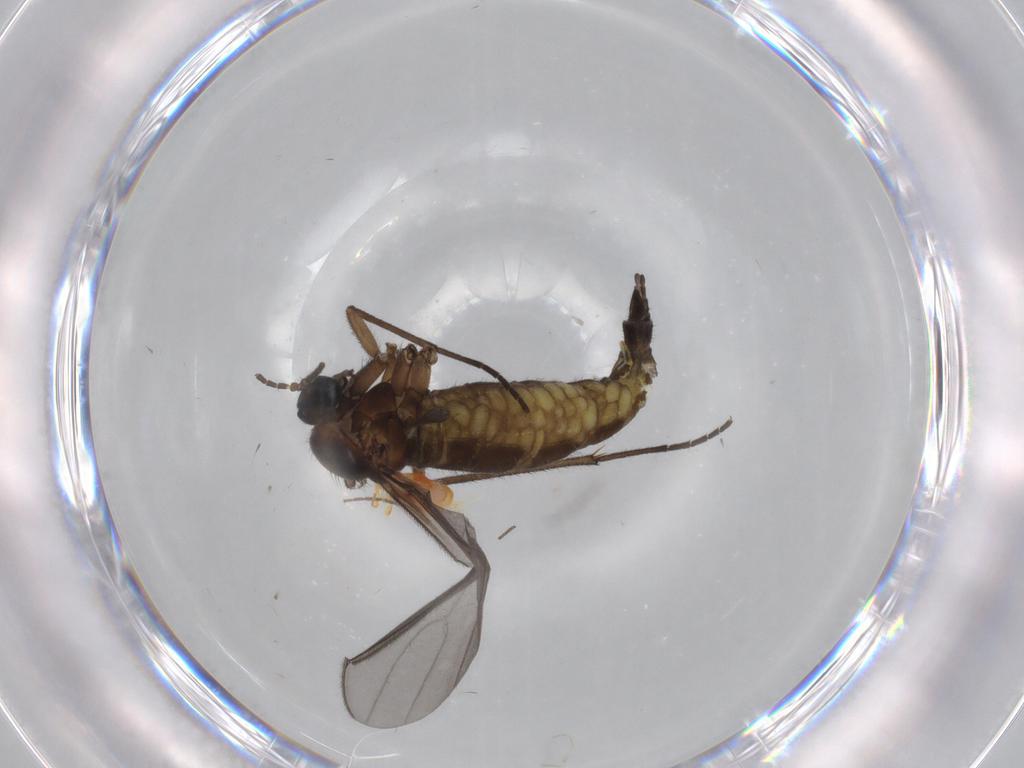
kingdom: Animalia
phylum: Arthropoda
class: Insecta
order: Diptera
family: Sciaridae
